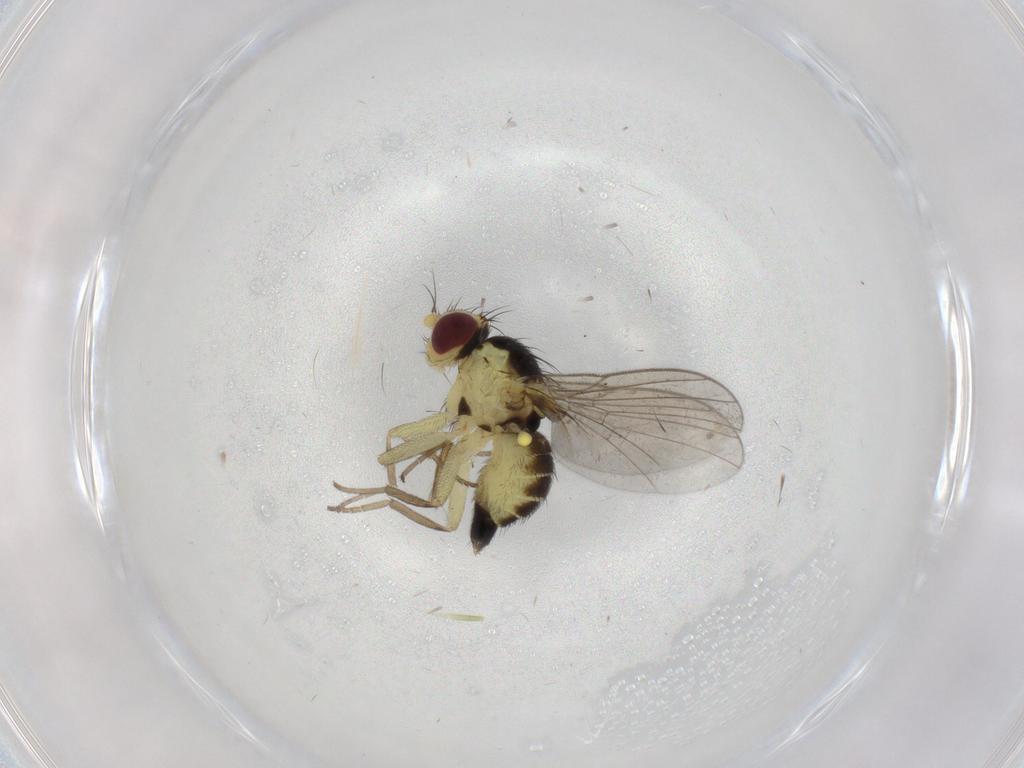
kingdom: Animalia
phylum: Arthropoda
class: Insecta
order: Diptera
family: Agromyzidae
